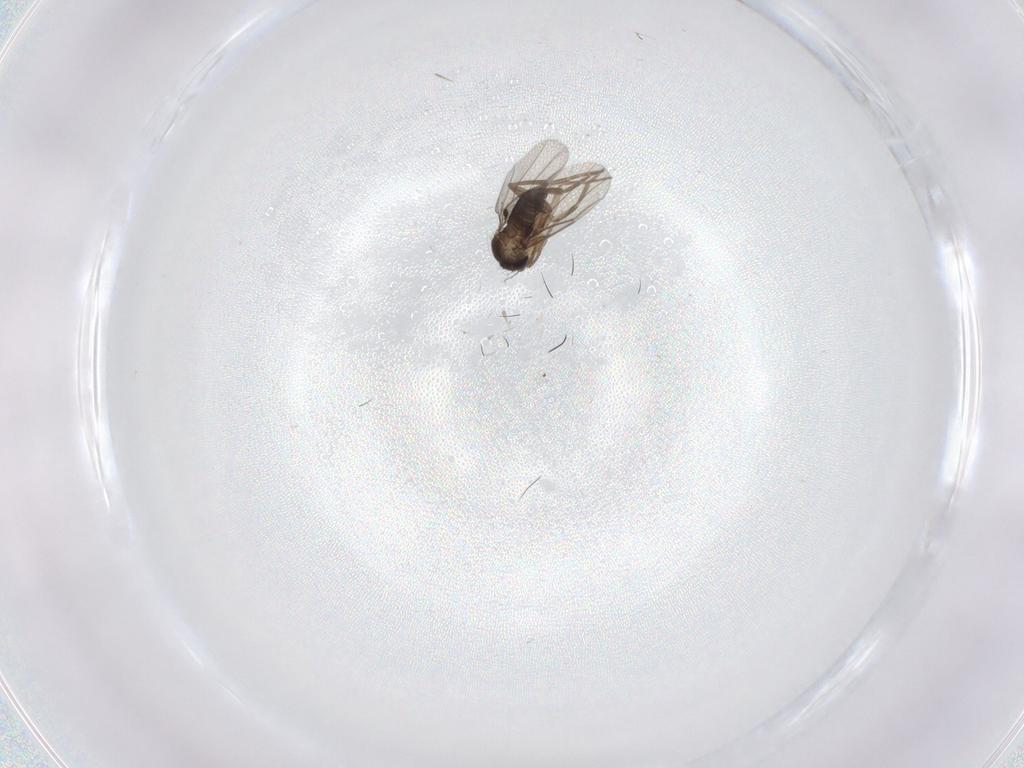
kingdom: Animalia
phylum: Arthropoda
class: Insecta
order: Diptera
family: Phoridae
